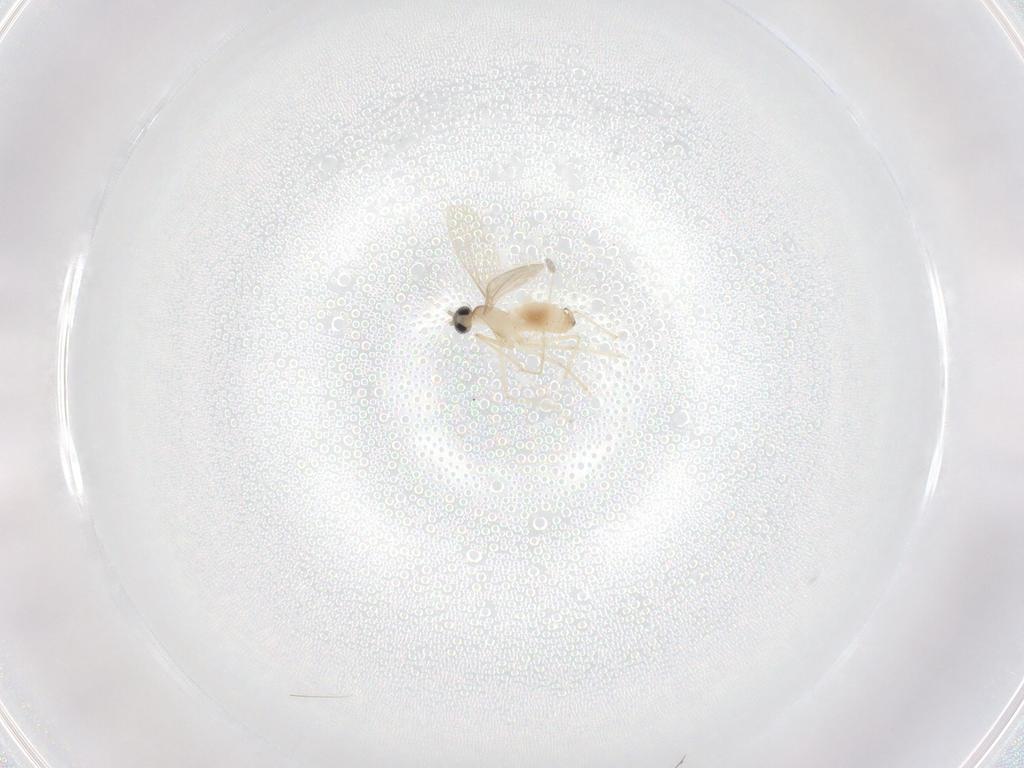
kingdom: Animalia
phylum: Arthropoda
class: Insecta
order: Diptera
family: Cecidomyiidae
